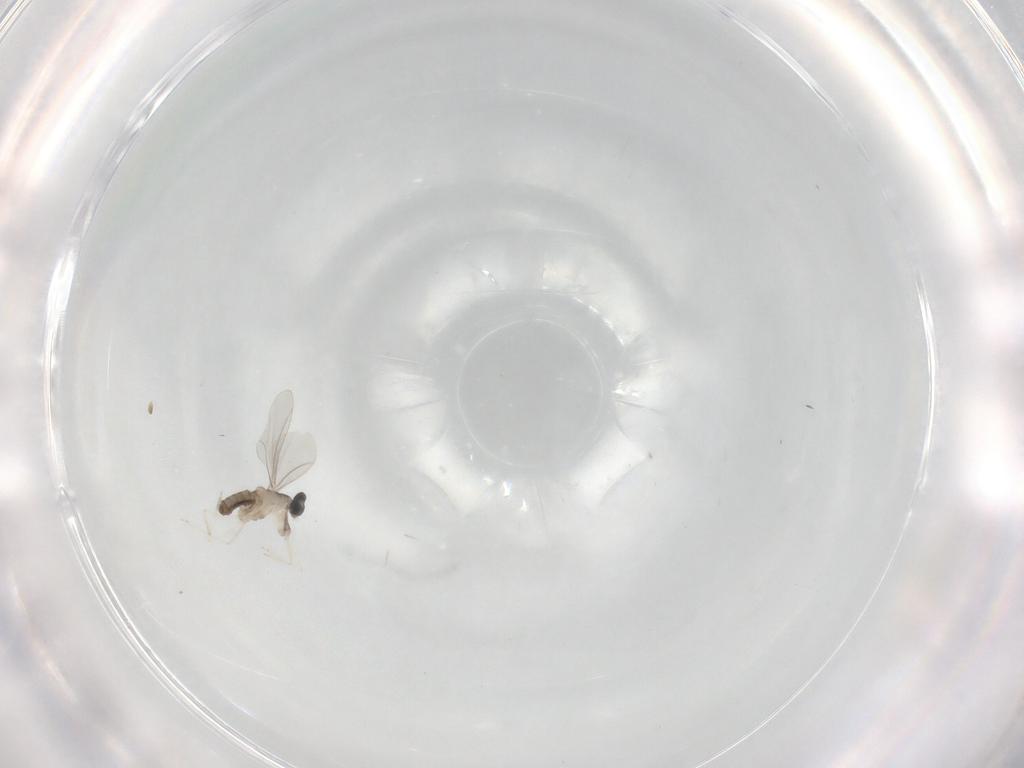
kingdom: Animalia
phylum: Arthropoda
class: Insecta
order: Diptera
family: Cecidomyiidae
